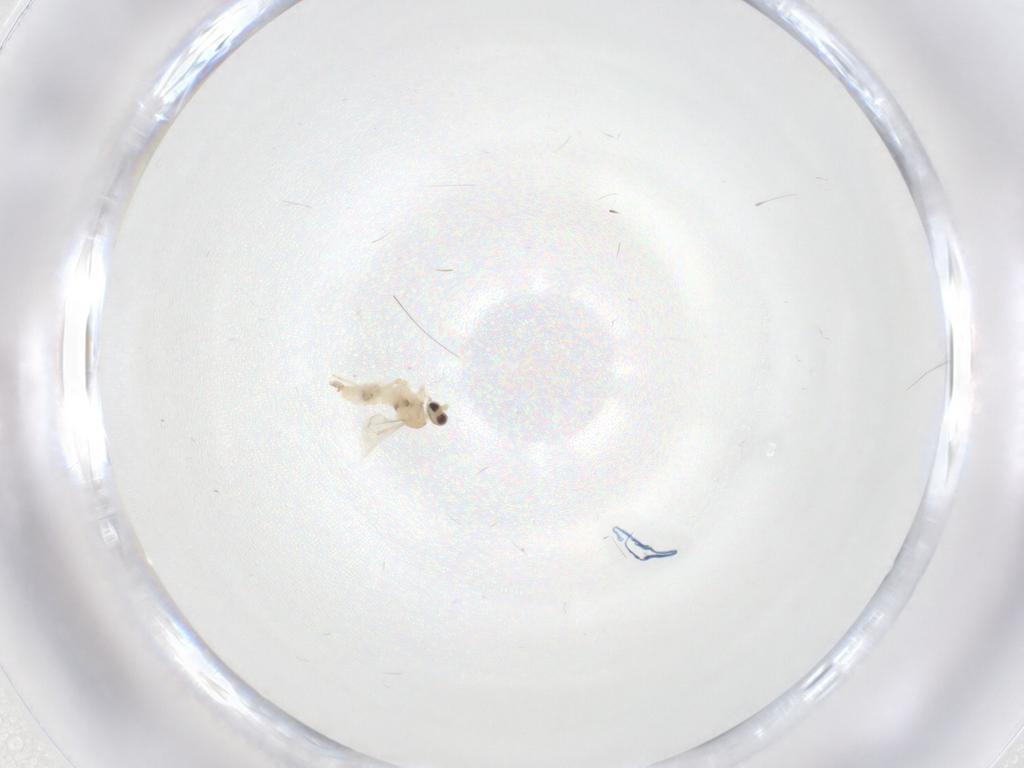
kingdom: Animalia
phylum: Arthropoda
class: Insecta
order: Diptera
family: Cecidomyiidae
